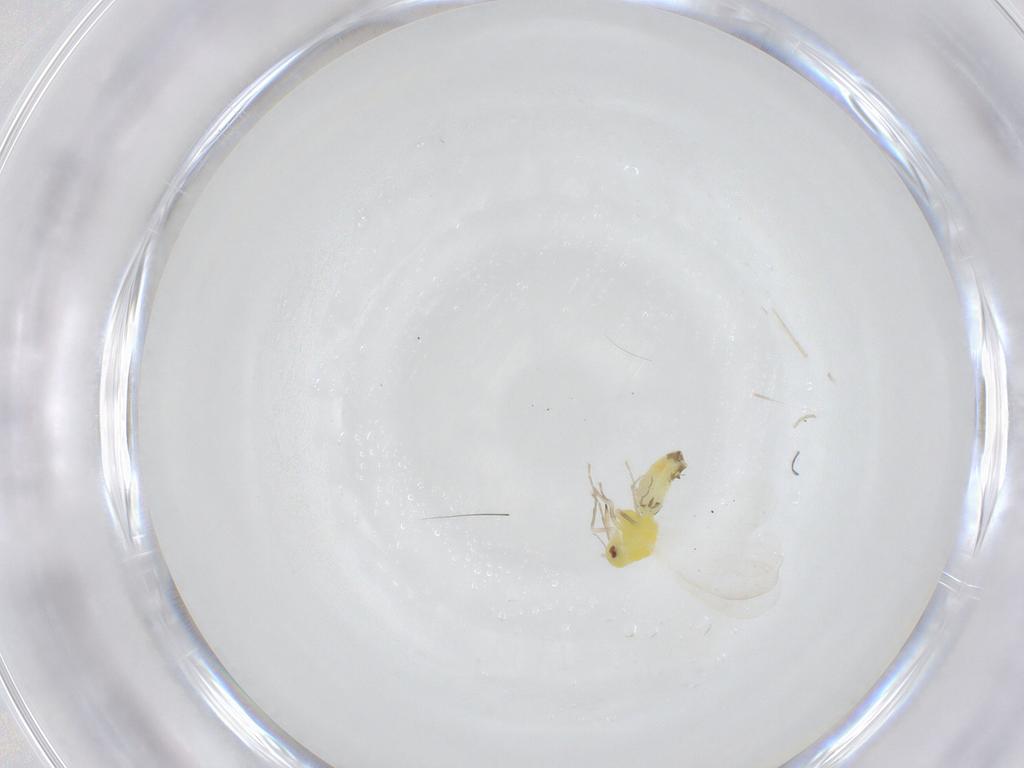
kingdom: Animalia
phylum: Arthropoda
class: Insecta
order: Hemiptera
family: Aleyrodidae
